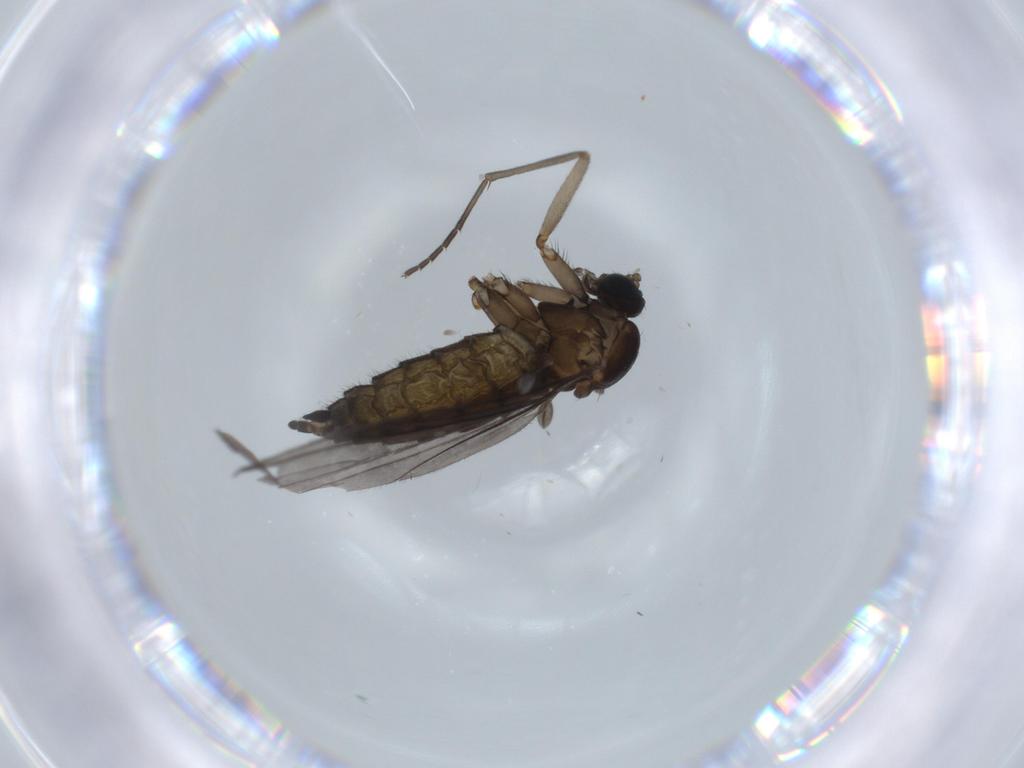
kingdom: Animalia
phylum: Arthropoda
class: Insecta
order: Diptera
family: Sciaridae
